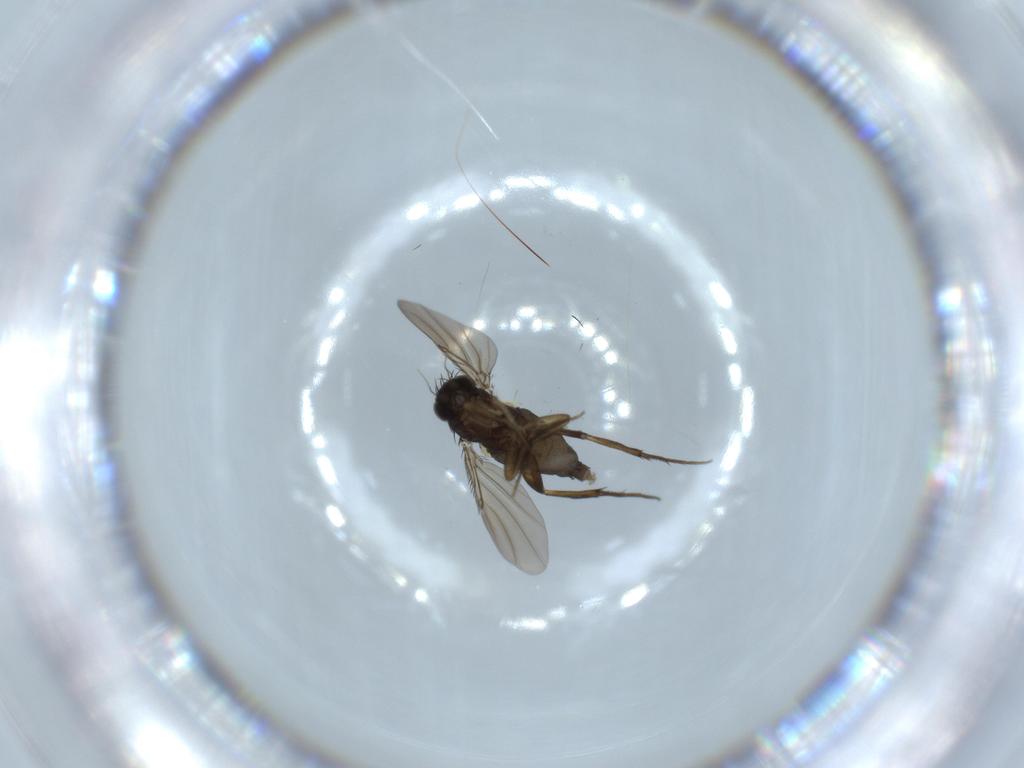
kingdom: Animalia
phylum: Arthropoda
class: Insecta
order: Diptera
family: Phoridae
